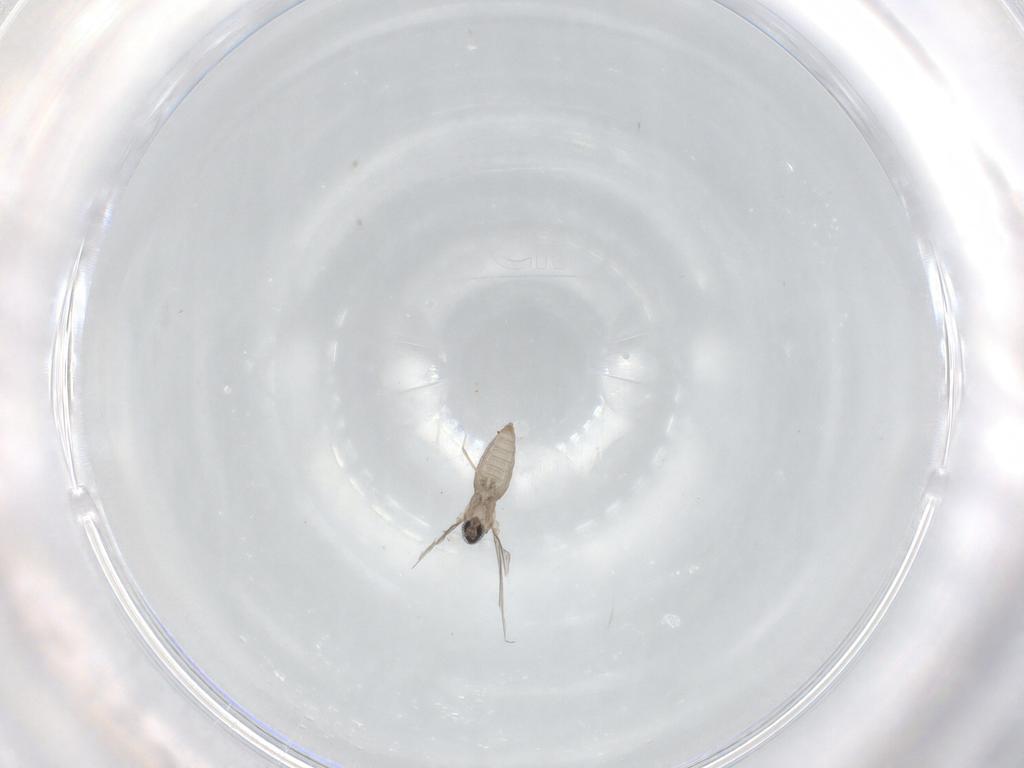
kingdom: Animalia
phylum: Arthropoda
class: Insecta
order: Diptera
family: Cecidomyiidae
